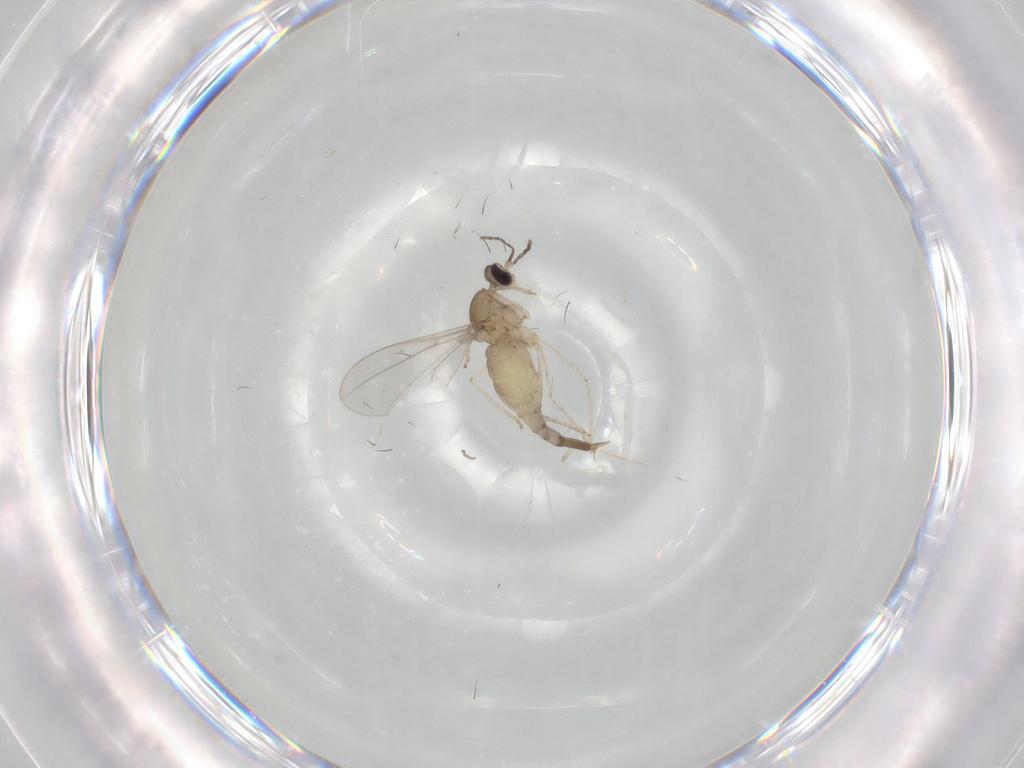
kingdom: Animalia
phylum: Arthropoda
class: Insecta
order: Diptera
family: Cecidomyiidae
